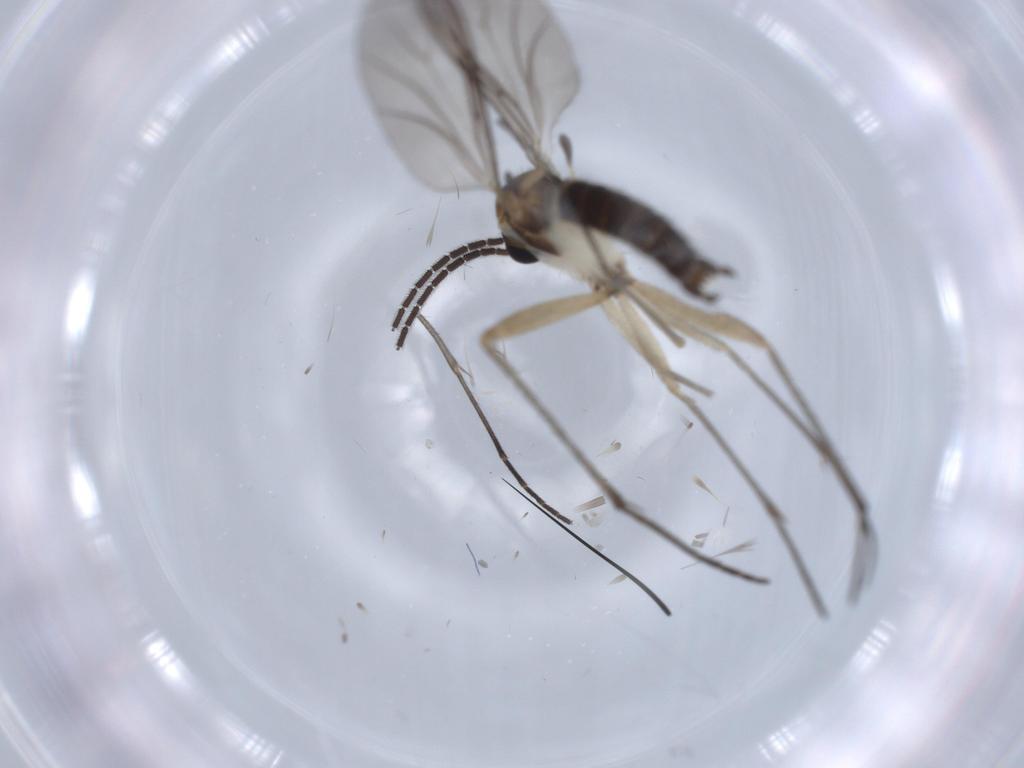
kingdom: Animalia
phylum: Arthropoda
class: Insecta
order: Diptera
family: Sciaridae
